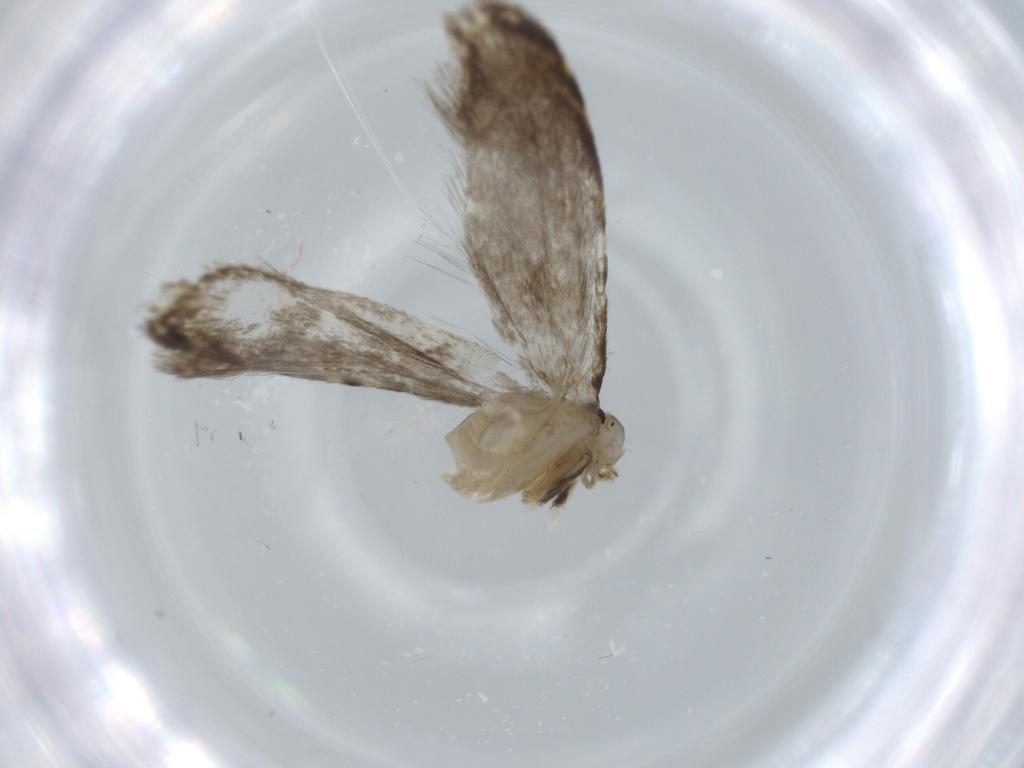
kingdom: Animalia
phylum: Arthropoda
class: Insecta
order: Lepidoptera
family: Tineidae
